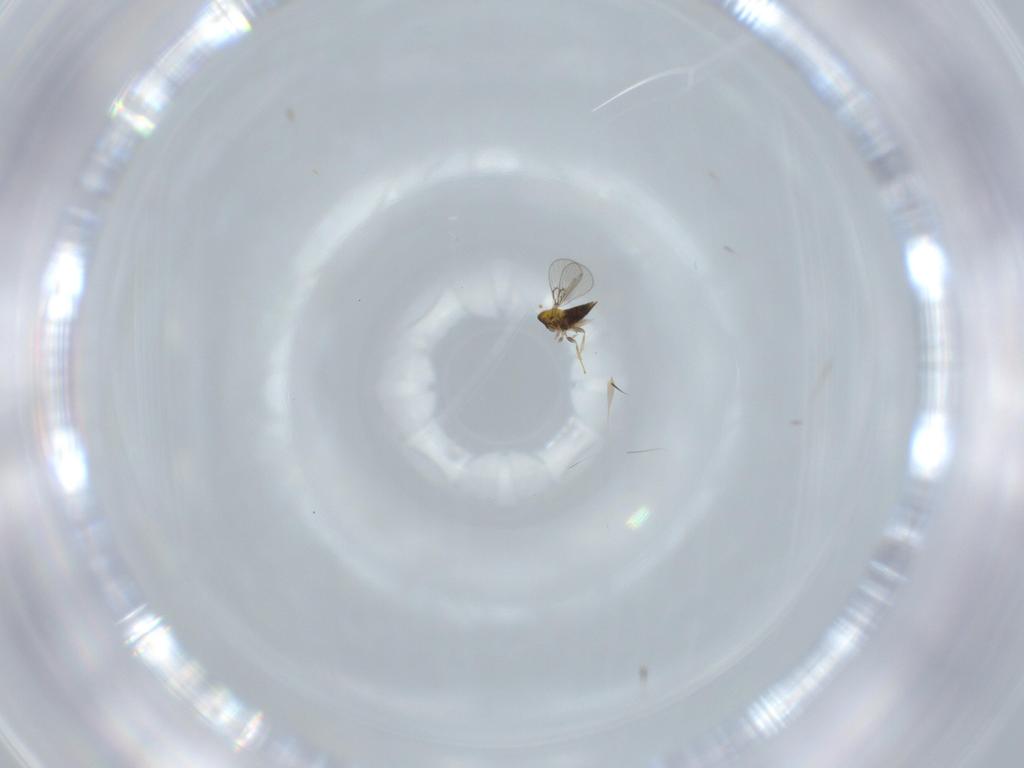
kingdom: Animalia
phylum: Arthropoda
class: Insecta
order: Hymenoptera
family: Trichogrammatidae
